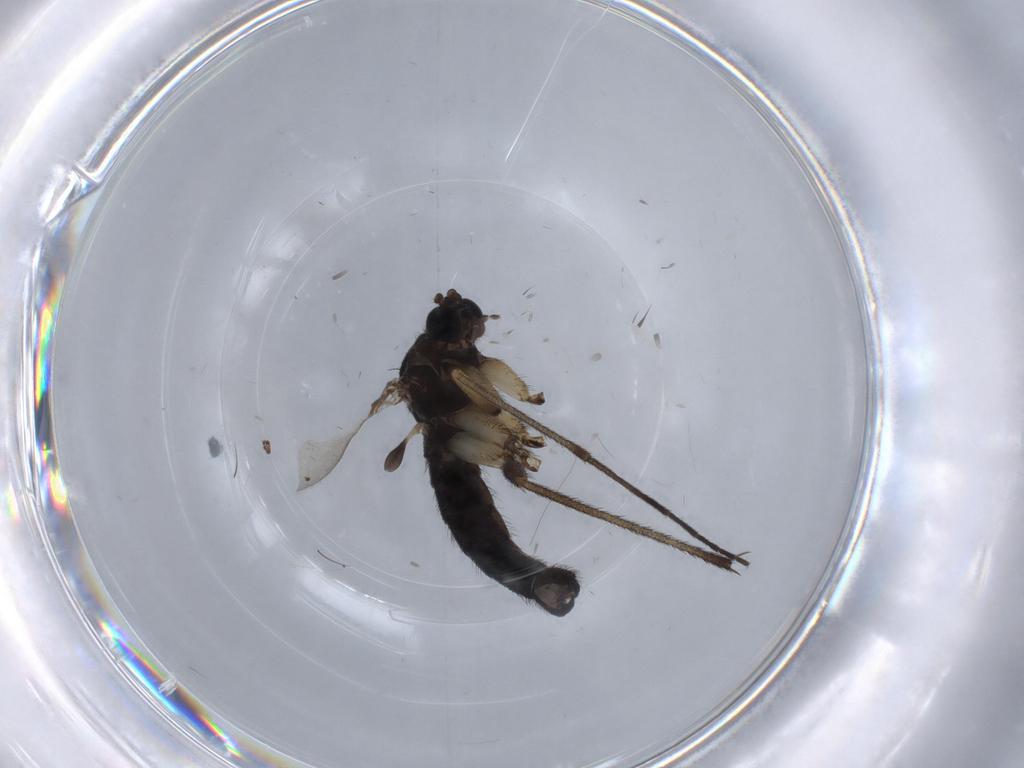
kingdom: Animalia
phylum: Arthropoda
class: Insecta
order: Diptera
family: Sciaridae
